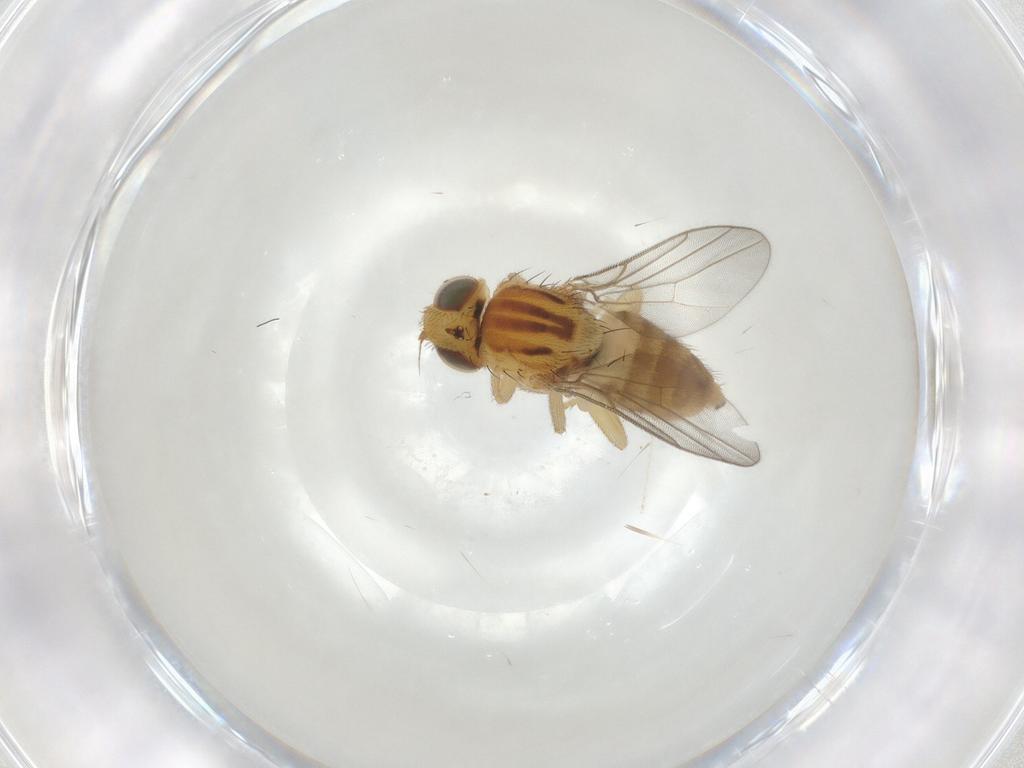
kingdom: Animalia
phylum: Arthropoda
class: Insecta
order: Diptera
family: Chloropidae
